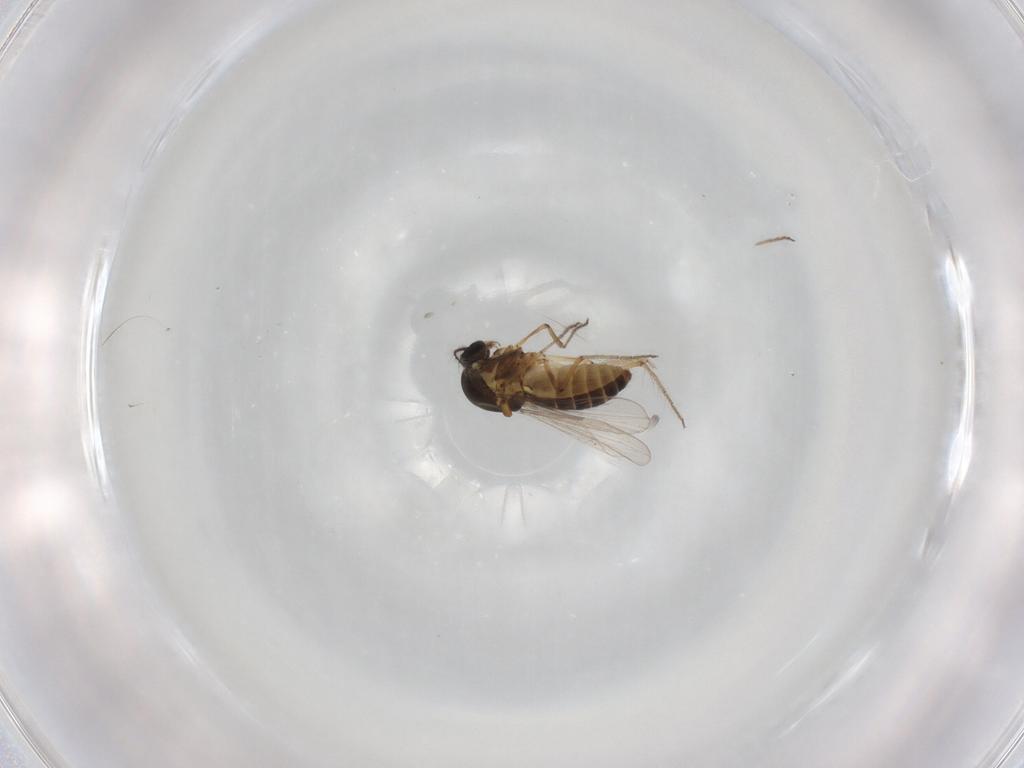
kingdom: Animalia
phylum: Arthropoda
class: Insecta
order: Diptera
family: Ceratopogonidae
